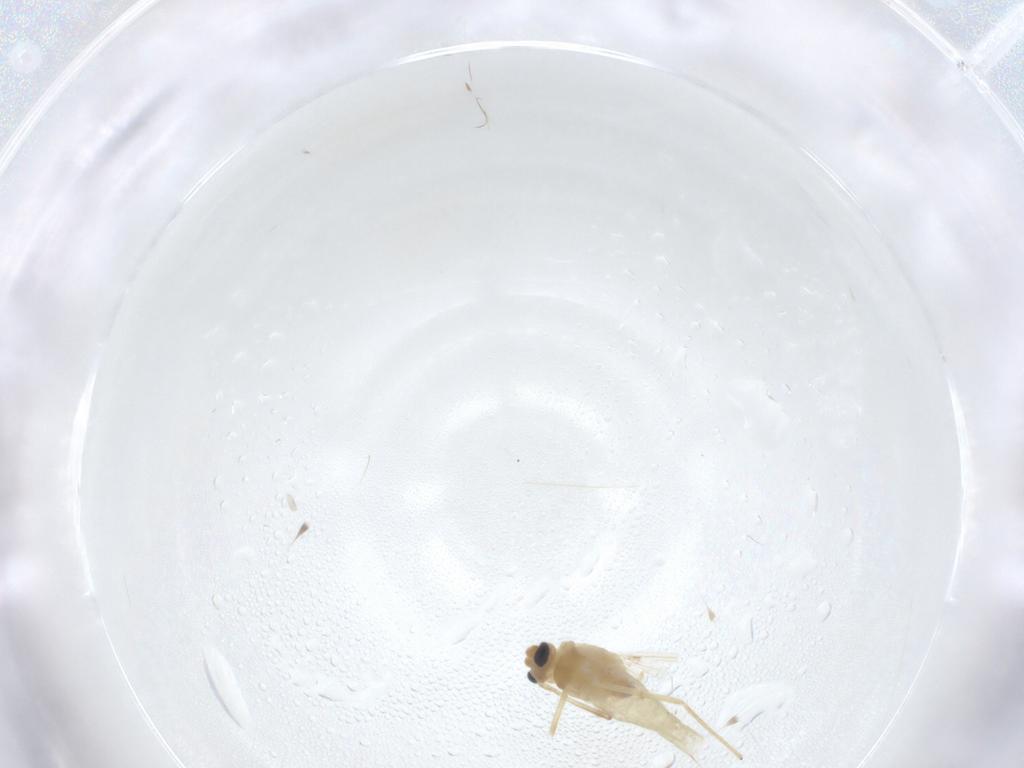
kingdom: Animalia
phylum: Arthropoda
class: Insecta
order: Diptera
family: Chironomidae
